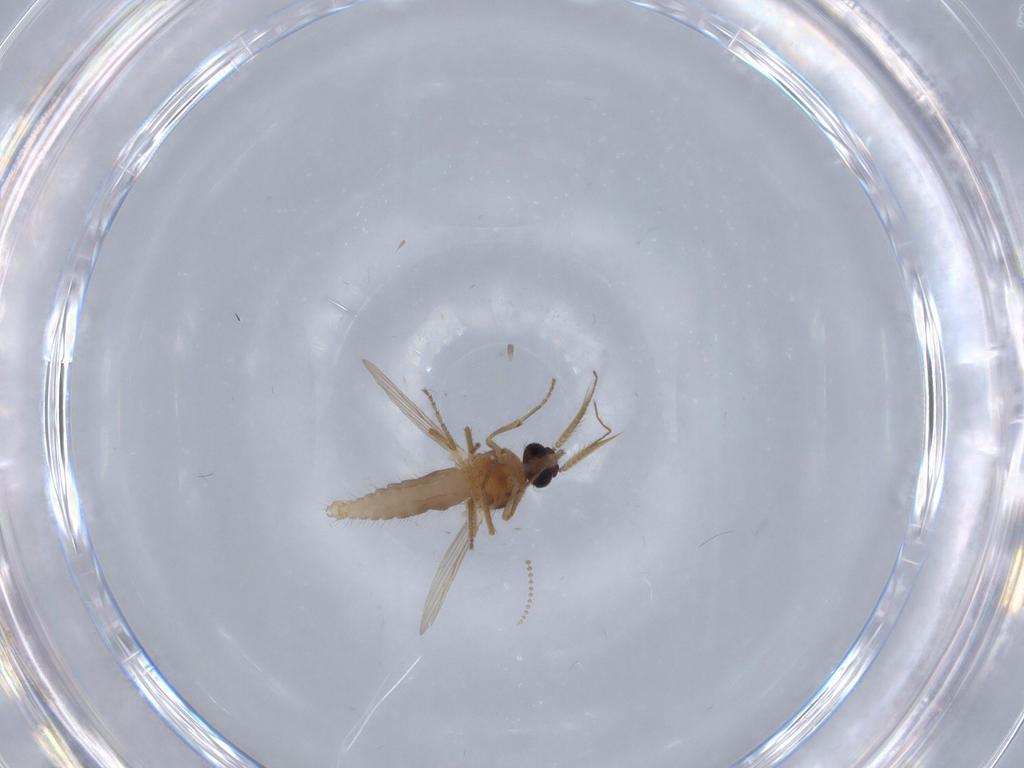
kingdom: Animalia
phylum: Arthropoda
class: Insecta
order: Diptera
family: Ceratopogonidae
